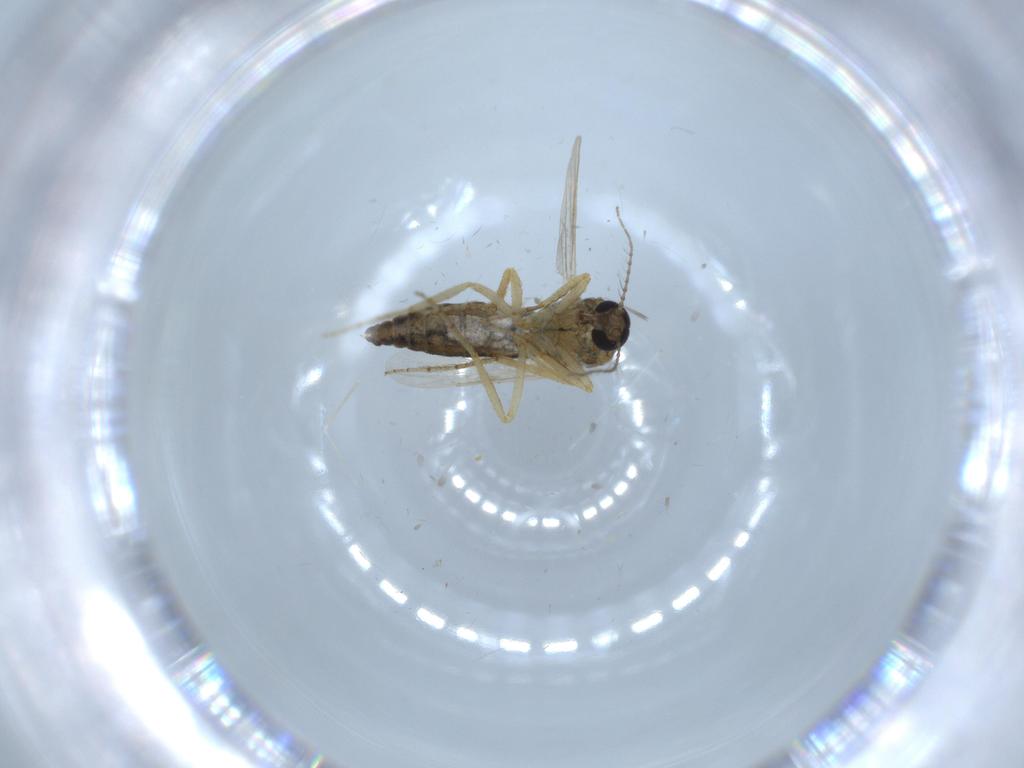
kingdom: Animalia
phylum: Arthropoda
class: Insecta
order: Diptera
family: Ceratopogonidae
